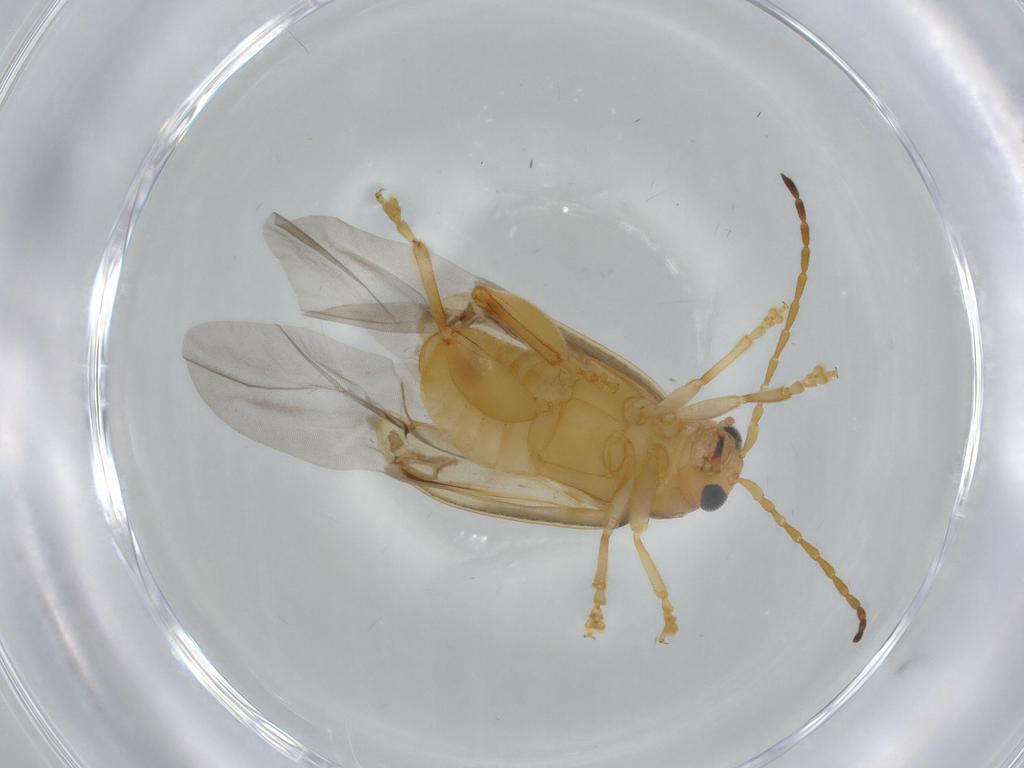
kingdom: Animalia
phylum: Arthropoda
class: Insecta
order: Coleoptera
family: Chrysomelidae
